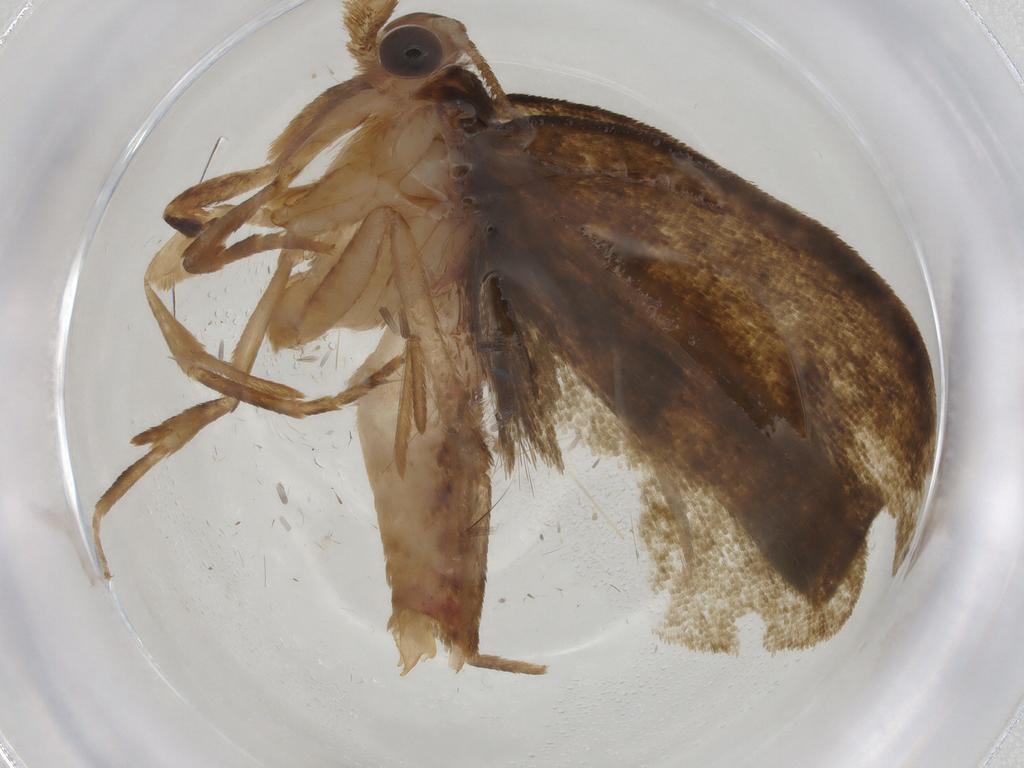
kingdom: Animalia
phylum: Arthropoda
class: Insecta
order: Lepidoptera
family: Geometridae
